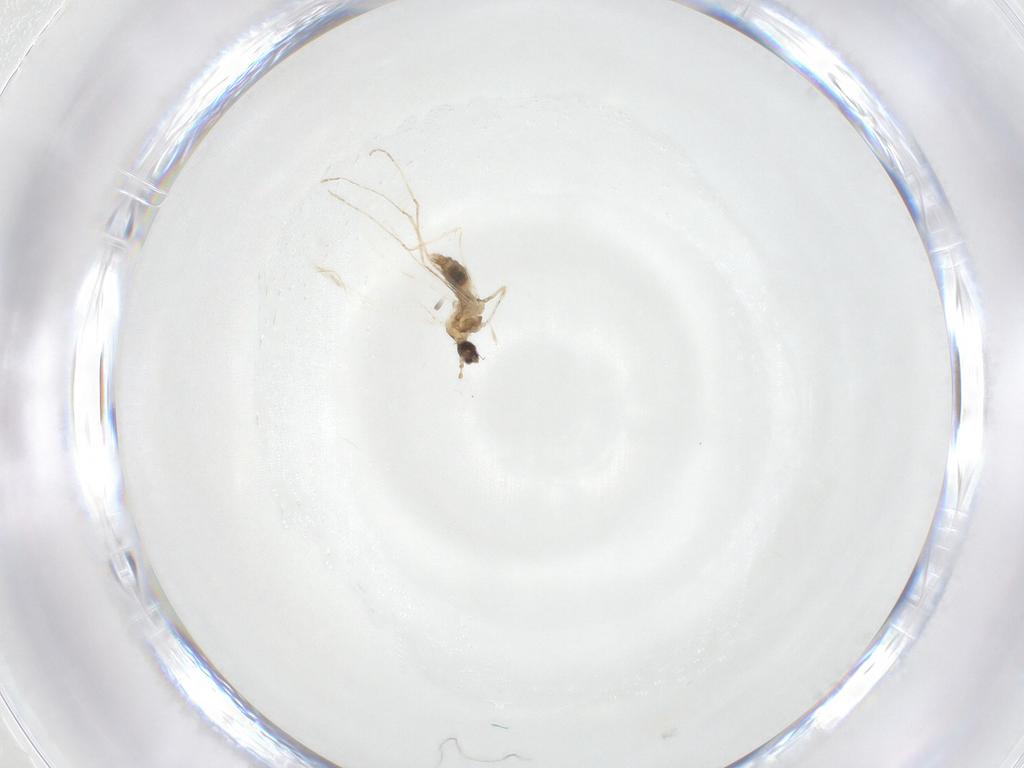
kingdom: Animalia
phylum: Arthropoda
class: Insecta
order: Diptera
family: Cecidomyiidae
